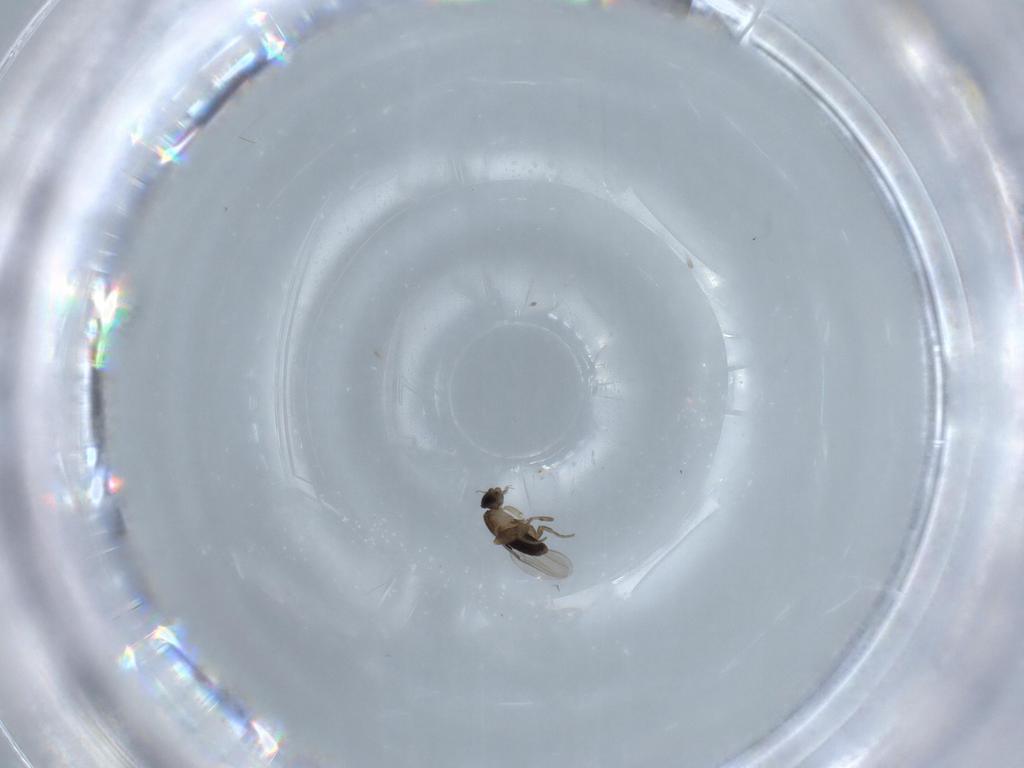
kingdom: Animalia
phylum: Arthropoda
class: Insecta
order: Diptera
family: Phoridae
